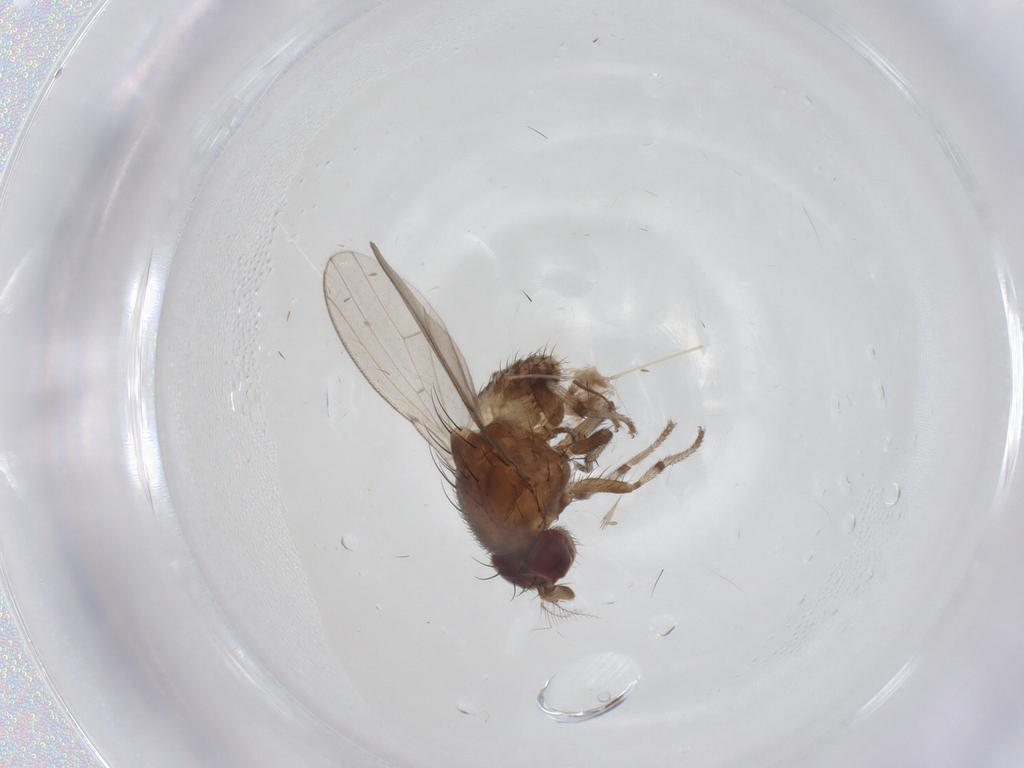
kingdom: Animalia
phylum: Arthropoda
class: Insecta
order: Diptera
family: Chironomidae
